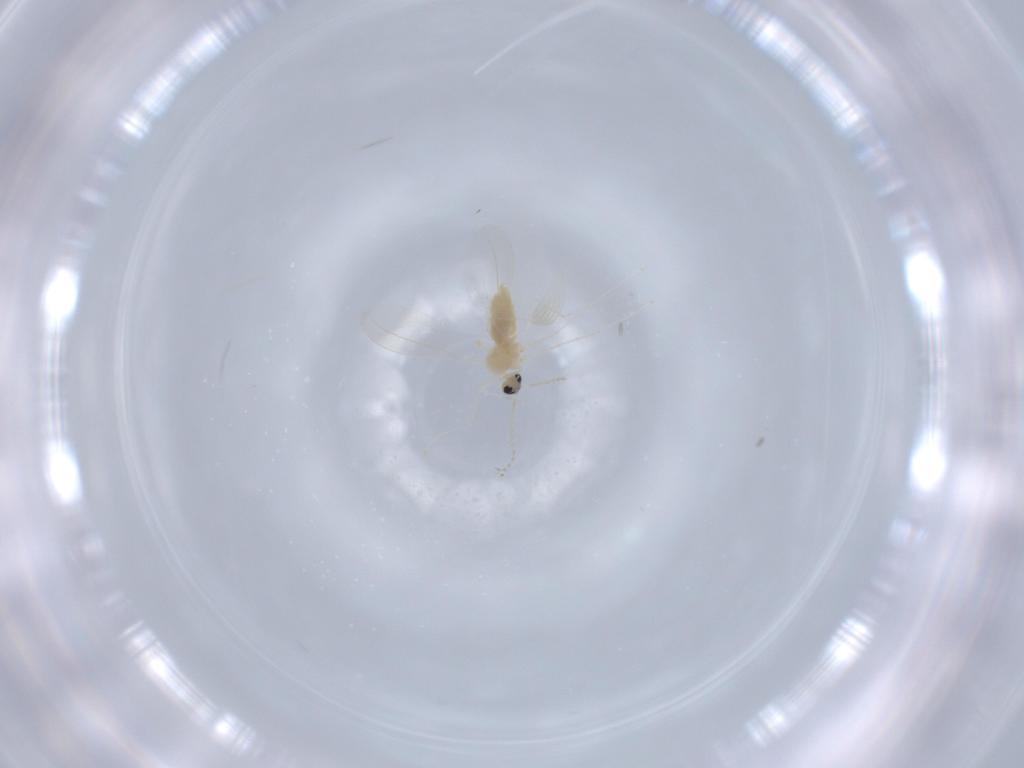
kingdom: Animalia
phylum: Arthropoda
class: Insecta
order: Diptera
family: Cecidomyiidae
